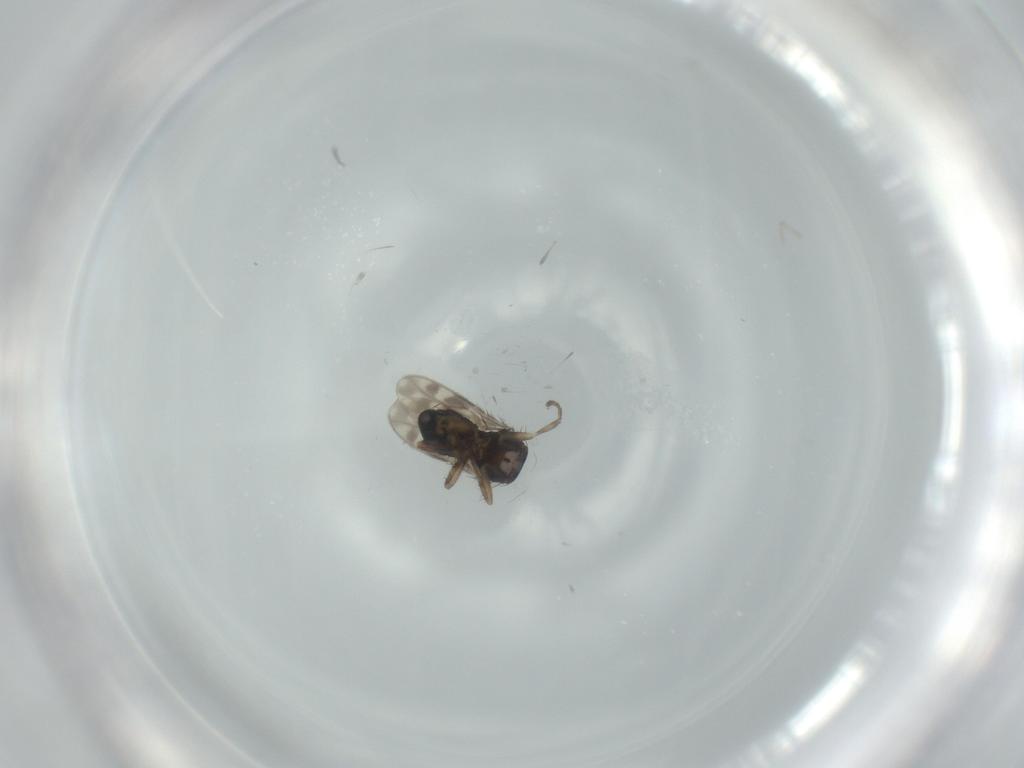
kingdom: Animalia
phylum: Arthropoda
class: Insecta
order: Diptera
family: Sphaeroceridae
